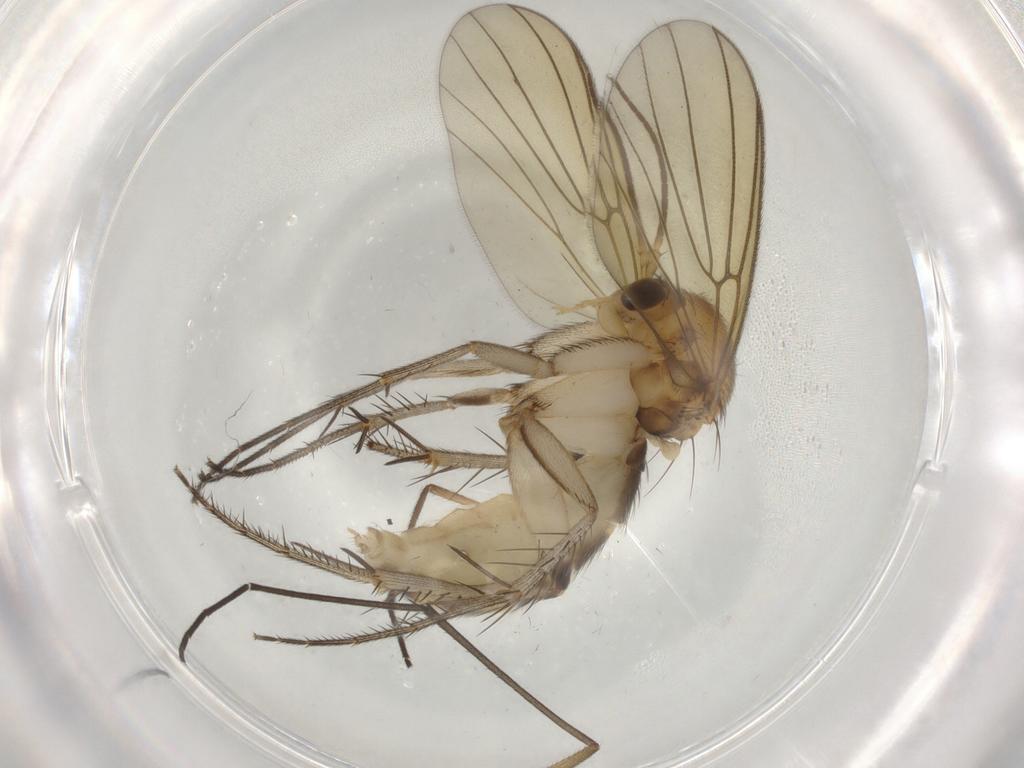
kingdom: Animalia
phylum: Arthropoda
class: Insecta
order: Diptera
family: Mycetophilidae
